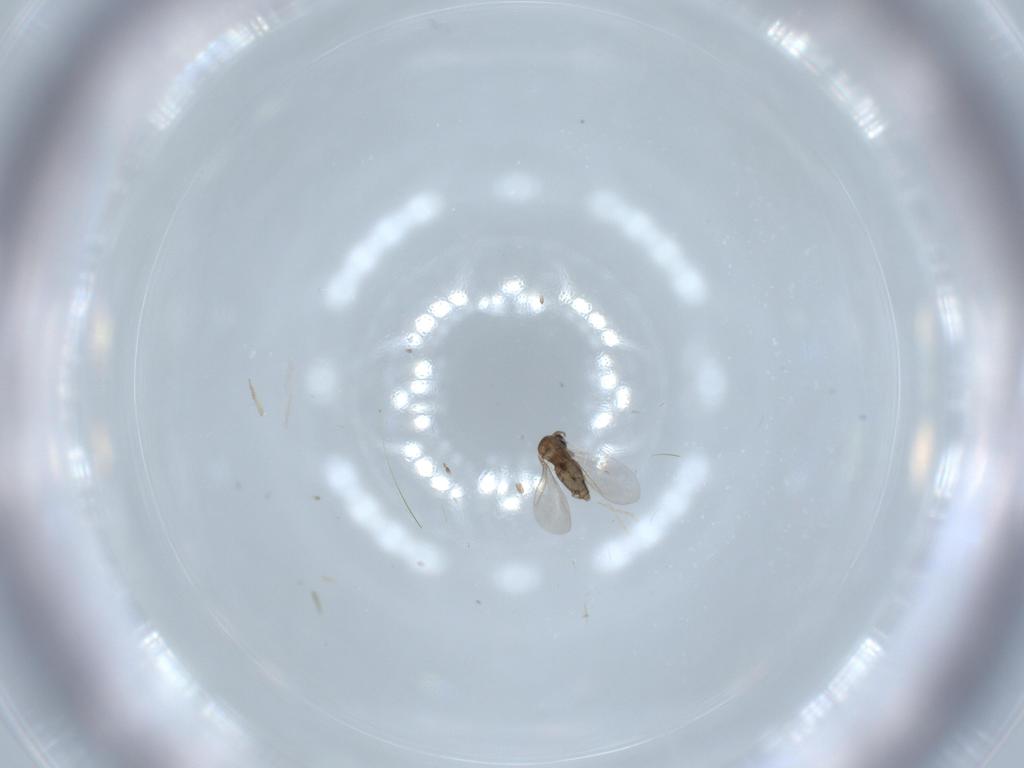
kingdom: Animalia
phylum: Arthropoda
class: Insecta
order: Diptera
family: Cecidomyiidae
